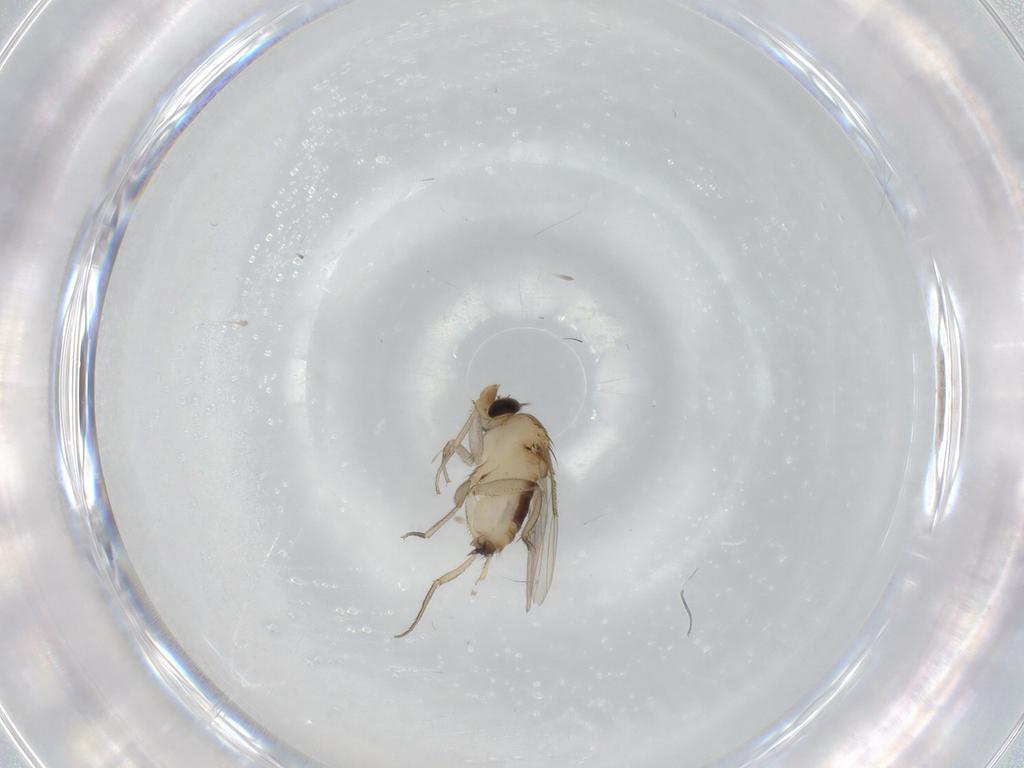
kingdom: Animalia
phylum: Arthropoda
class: Insecta
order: Diptera
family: Phoridae
